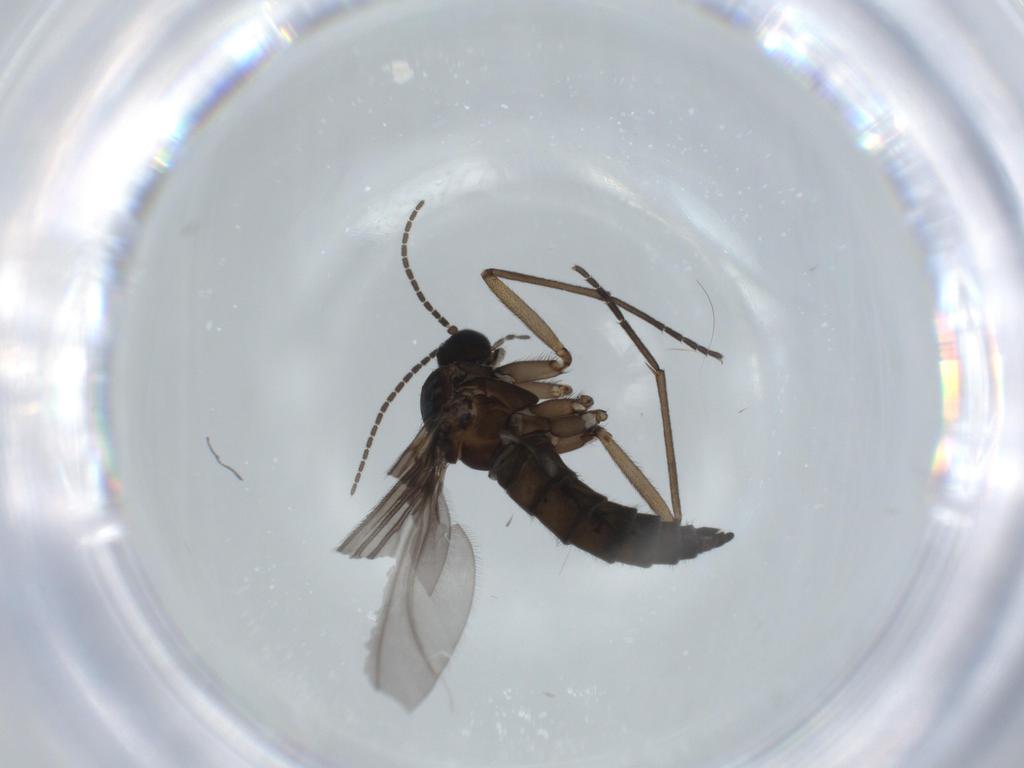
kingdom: Animalia
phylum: Arthropoda
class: Insecta
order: Diptera
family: Sciaridae
